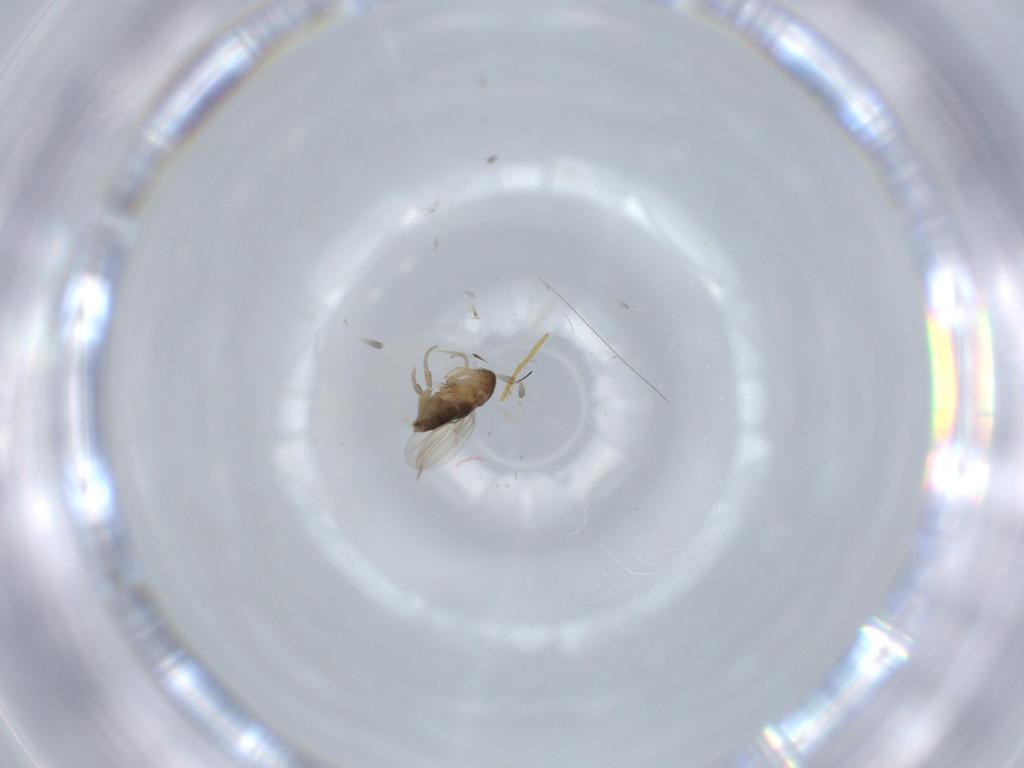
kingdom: Animalia
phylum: Arthropoda
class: Insecta
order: Diptera
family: Phoridae
